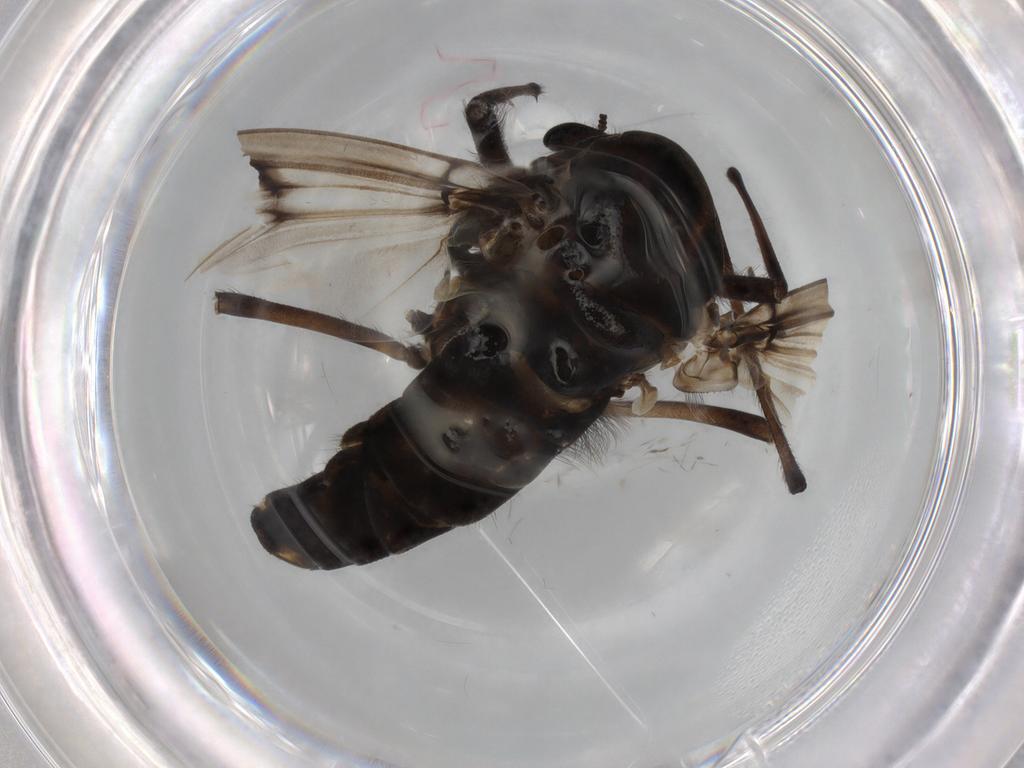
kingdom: Animalia
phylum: Arthropoda
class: Insecta
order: Diptera
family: Chironomidae
